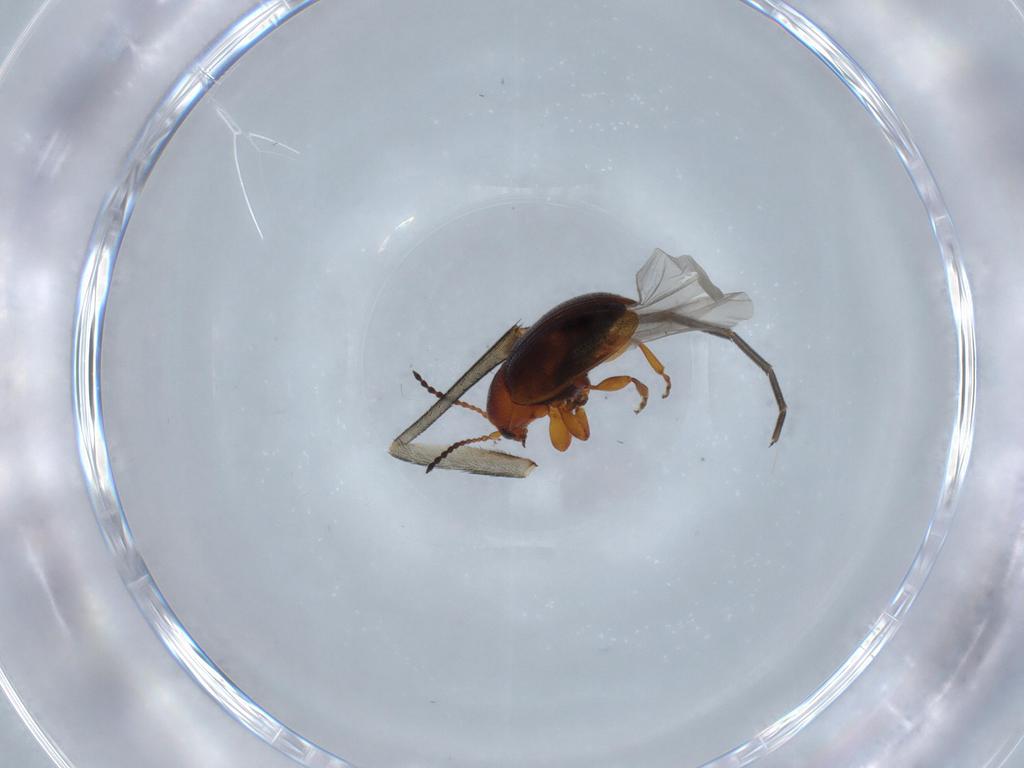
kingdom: Animalia
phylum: Arthropoda
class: Insecta
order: Coleoptera
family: Chrysomelidae
